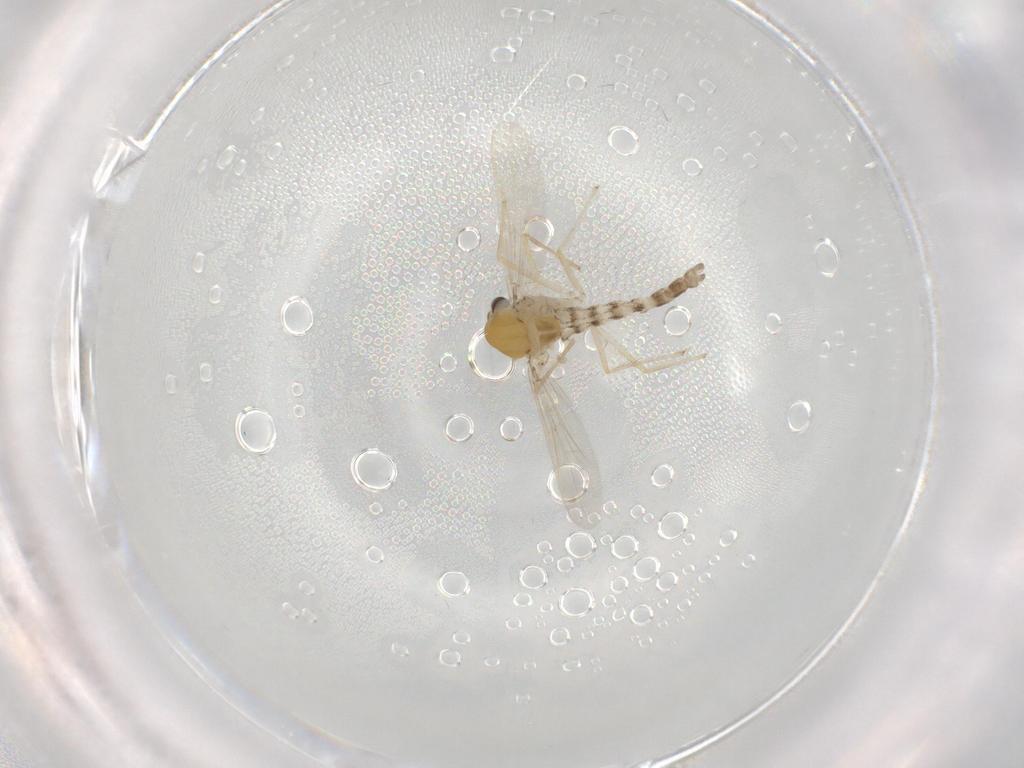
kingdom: Animalia
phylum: Arthropoda
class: Insecta
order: Diptera
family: Chironomidae
